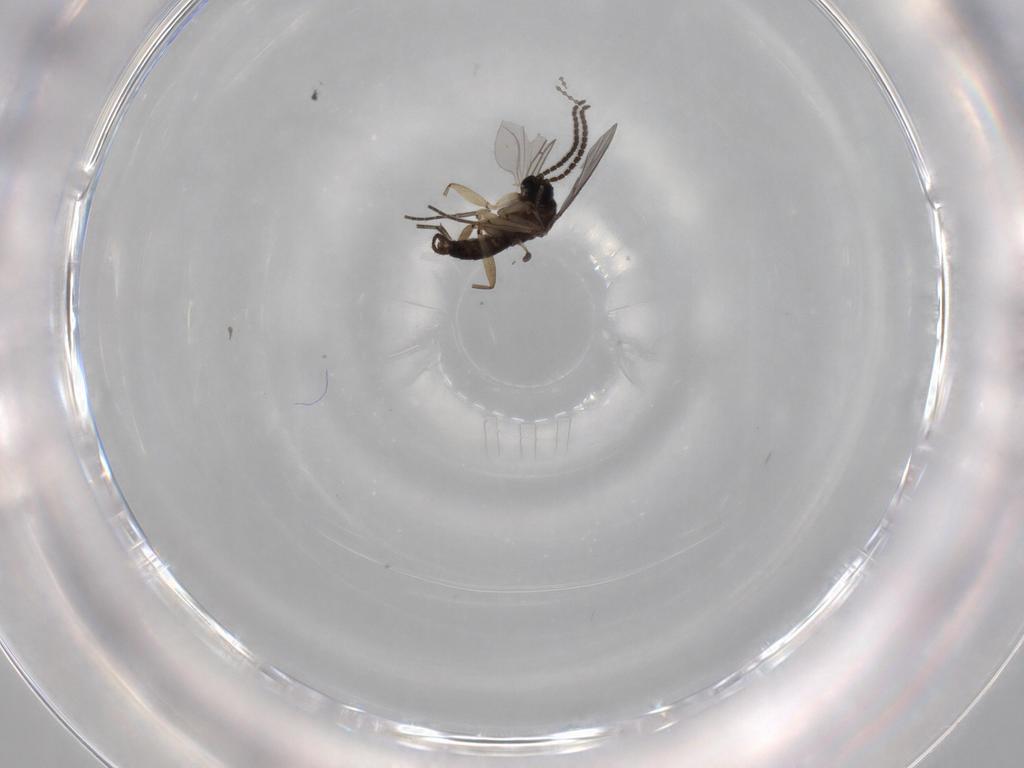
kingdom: Animalia
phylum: Arthropoda
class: Insecta
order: Diptera
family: Sciaridae
